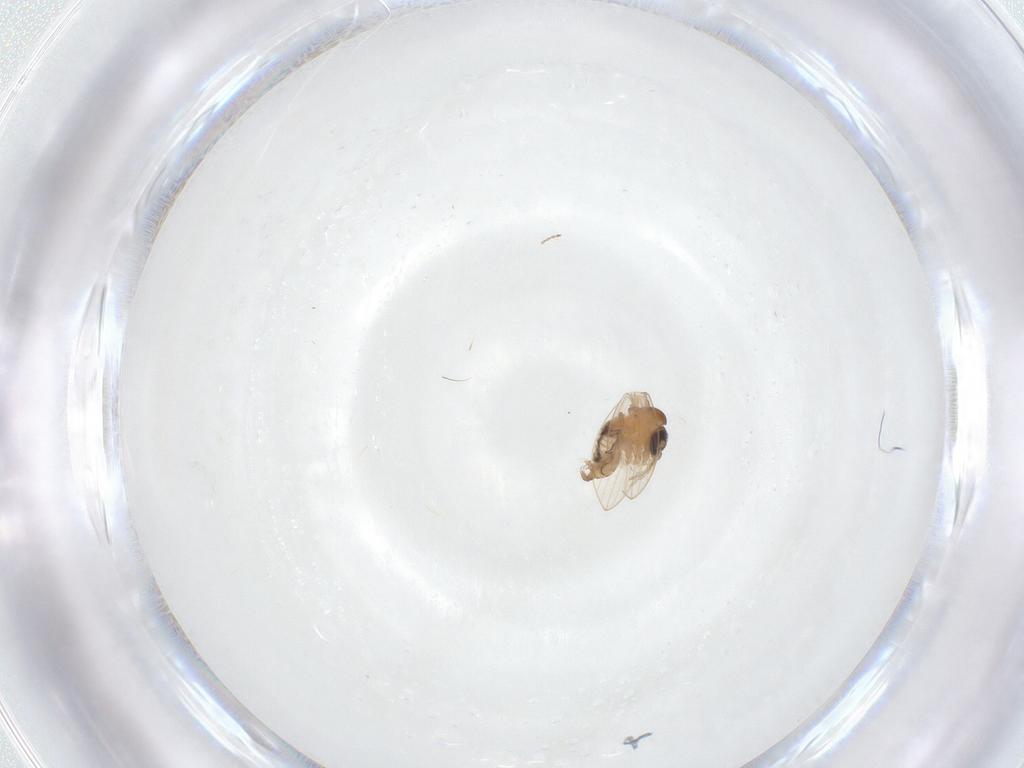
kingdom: Animalia
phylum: Arthropoda
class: Insecta
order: Diptera
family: Psychodidae
